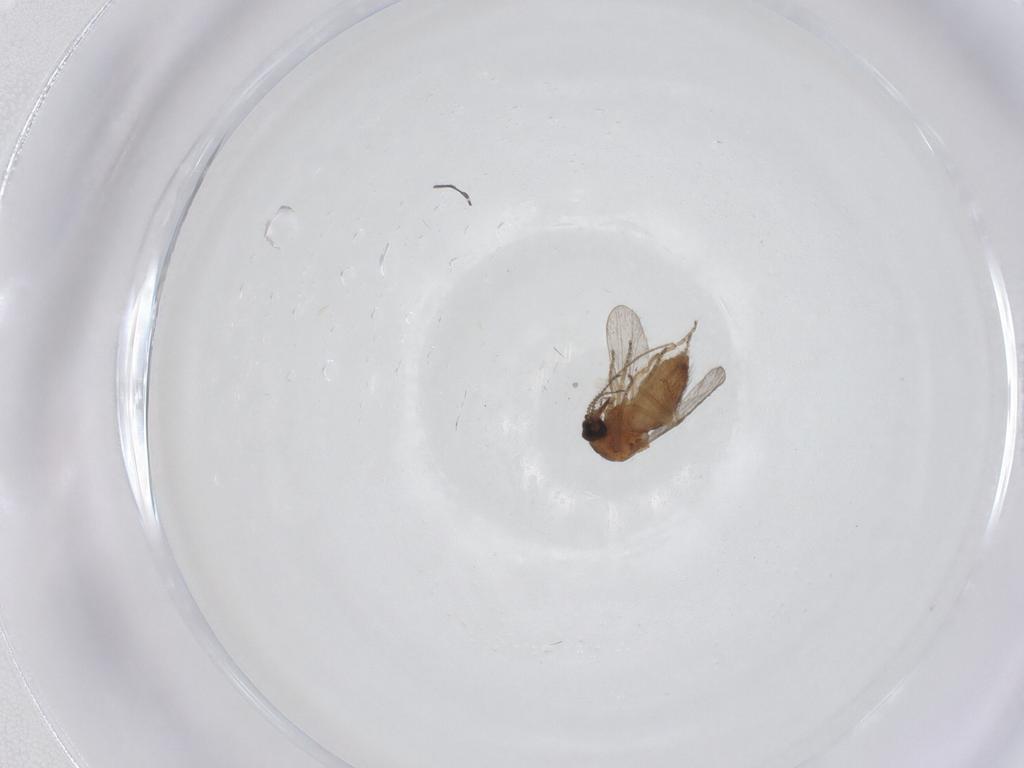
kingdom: Animalia
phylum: Arthropoda
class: Insecta
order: Diptera
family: Ceratopogonidae
